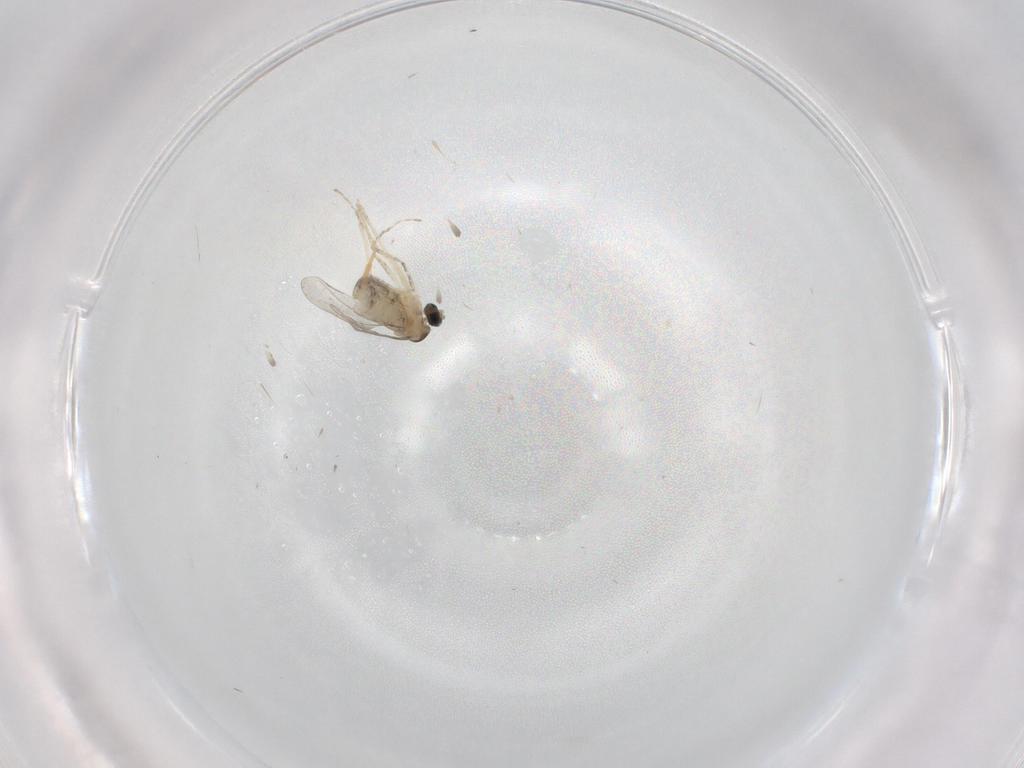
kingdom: Animalia
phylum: Arthropoda
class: Insecta
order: Diptera
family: Cecidomyiidae
